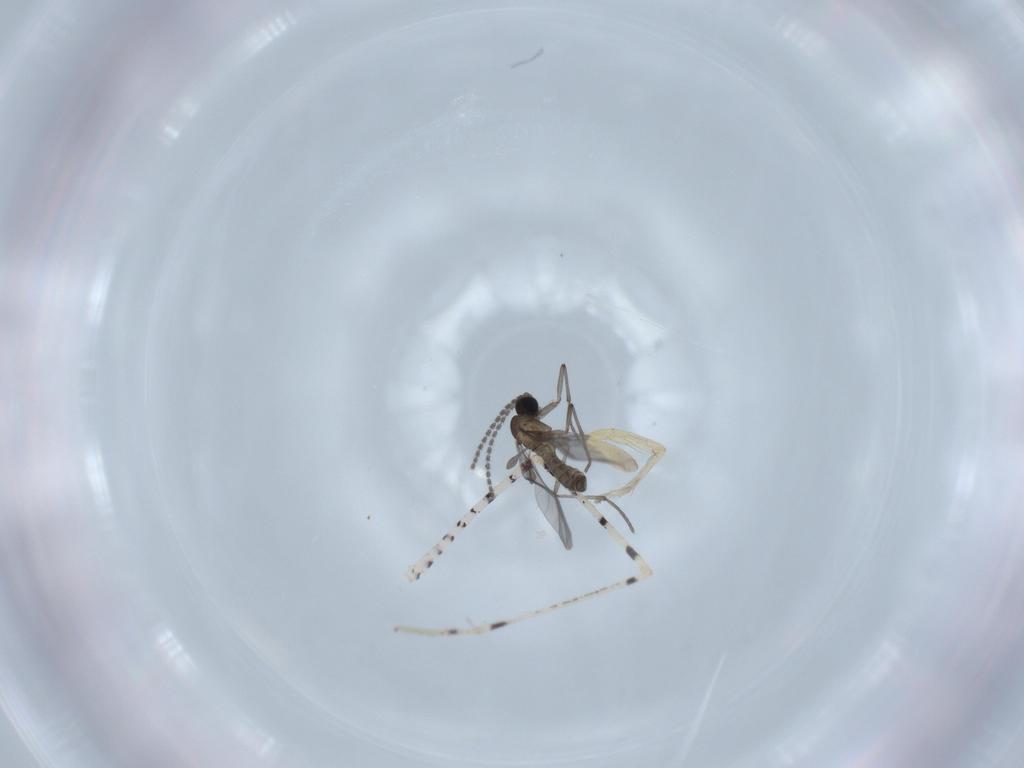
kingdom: Animalia
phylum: Arthropoda
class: Insecta
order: Diptera
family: Sciaridae
